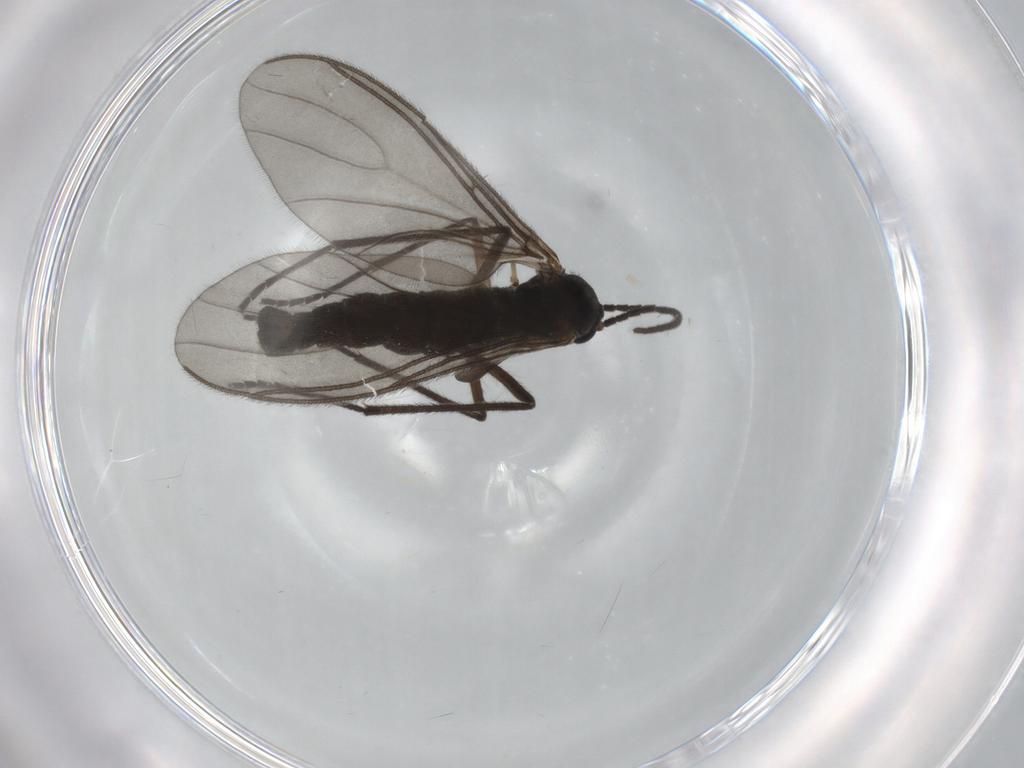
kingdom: Animalia
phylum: Arthropoda
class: Insecta
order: Diptera
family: Sciaridae
